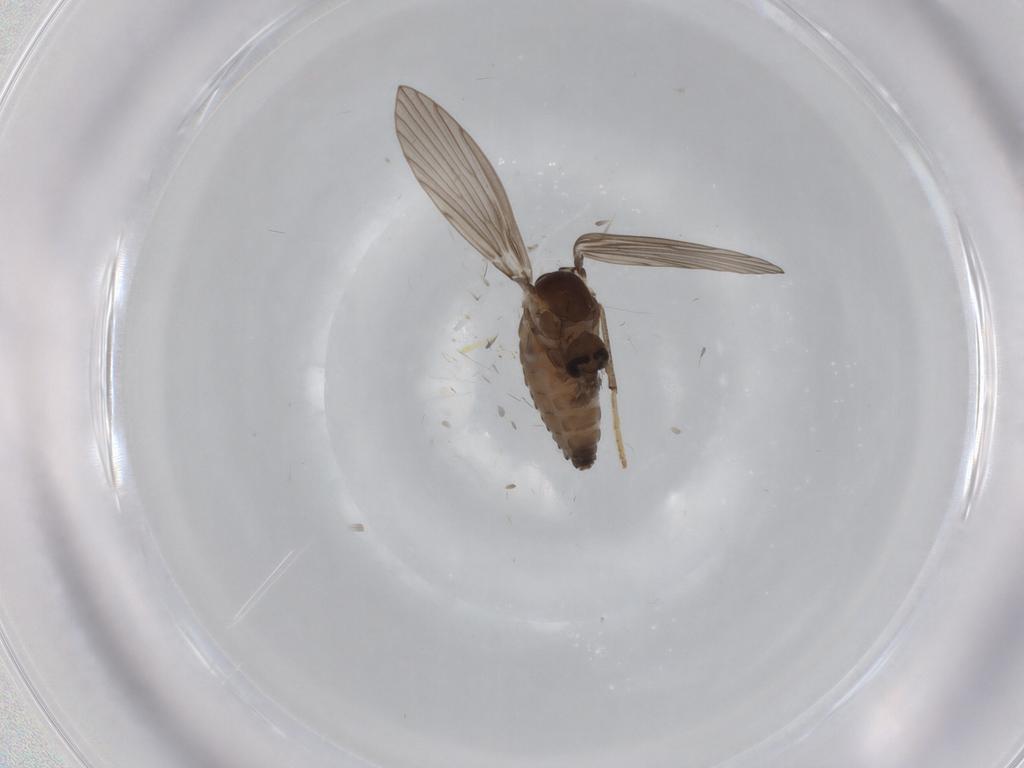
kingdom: Animalia
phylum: Arthropoda
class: Insecta
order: Diptera
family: Psychodidae
